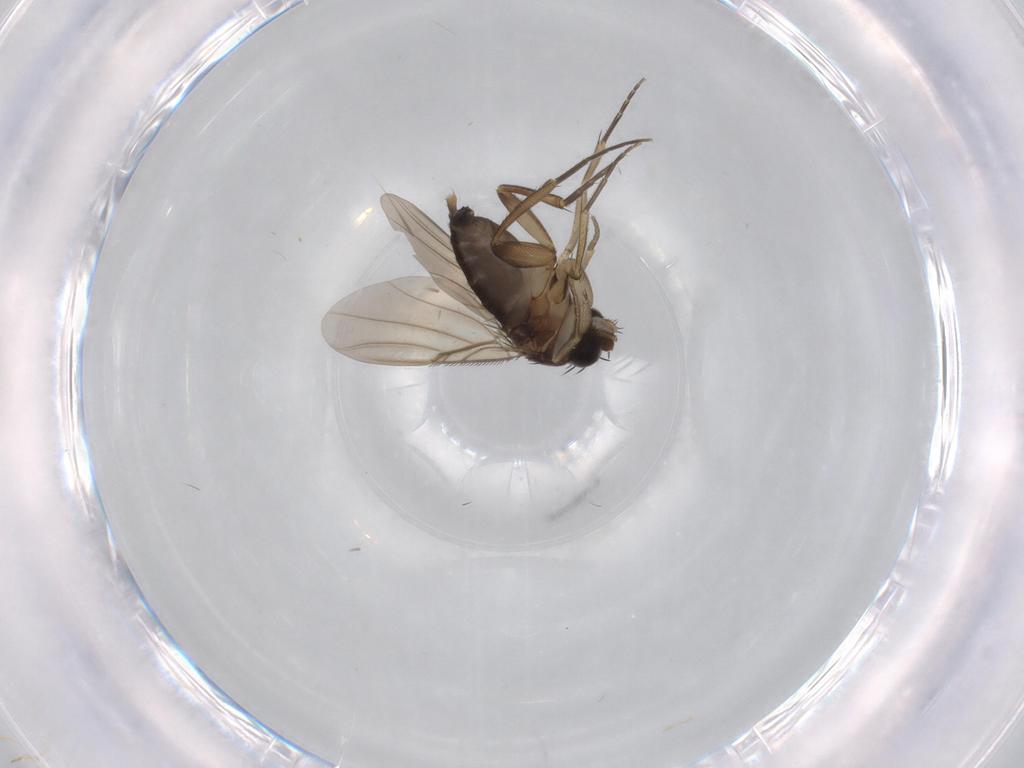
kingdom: Animalia
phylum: Arthropoda
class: Insecta
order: Diptera
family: Phoridae
